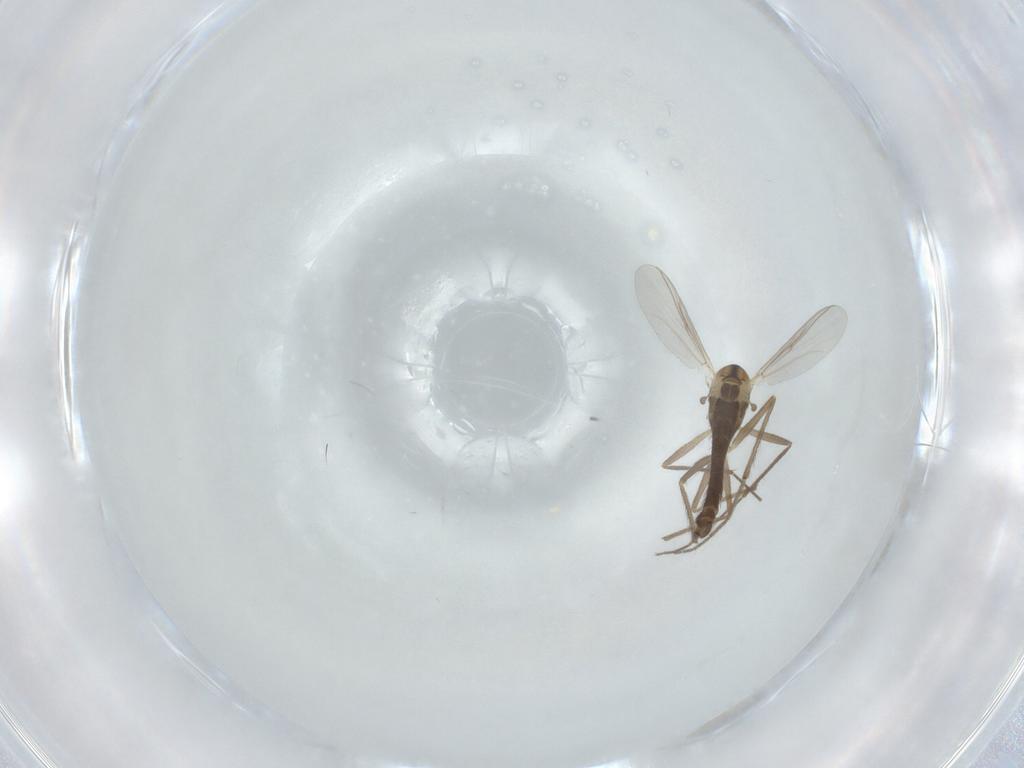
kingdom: Animalia
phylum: Arthropoda
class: Insecta
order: Diptera
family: Chironomidae
